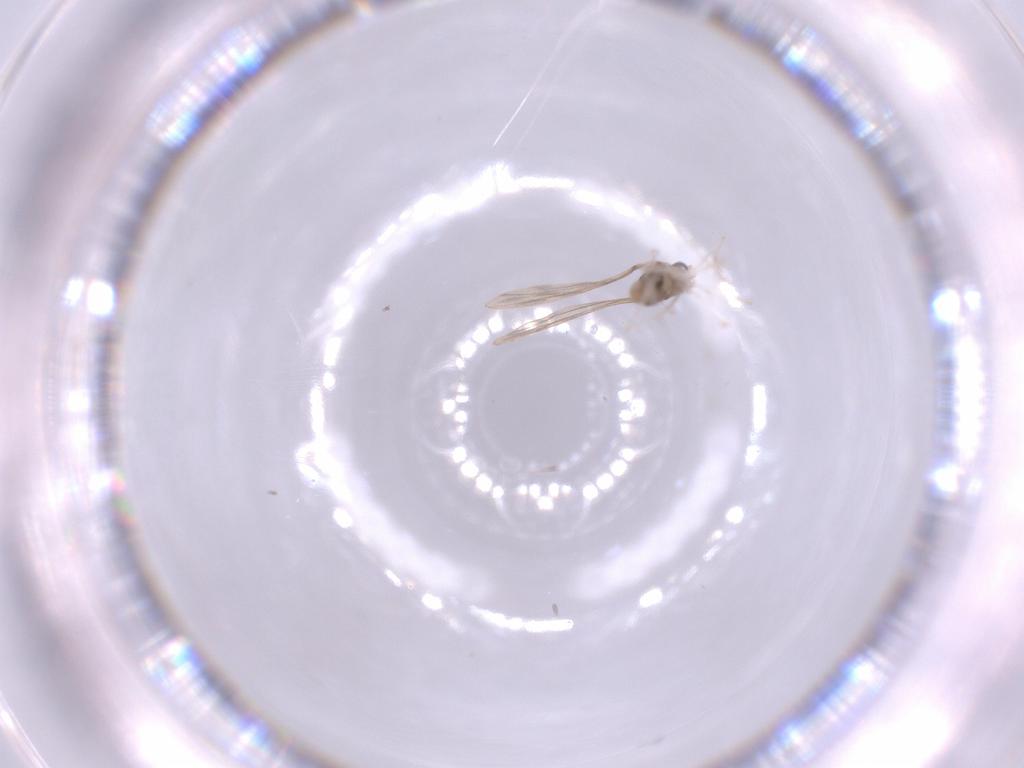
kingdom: Animalia
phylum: Arthropoda
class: Insecta
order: Diptera
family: Cecidomyiidae
